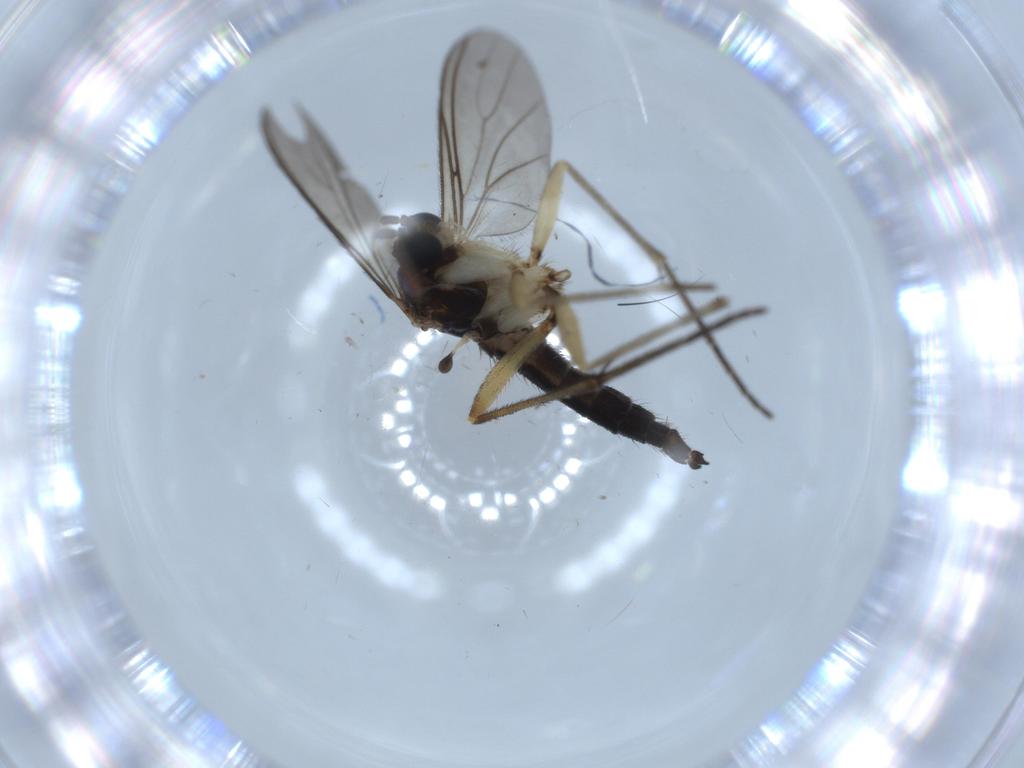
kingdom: Animalia
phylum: Arthropoda
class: Insecta
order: Diptera
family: Sciaridae
